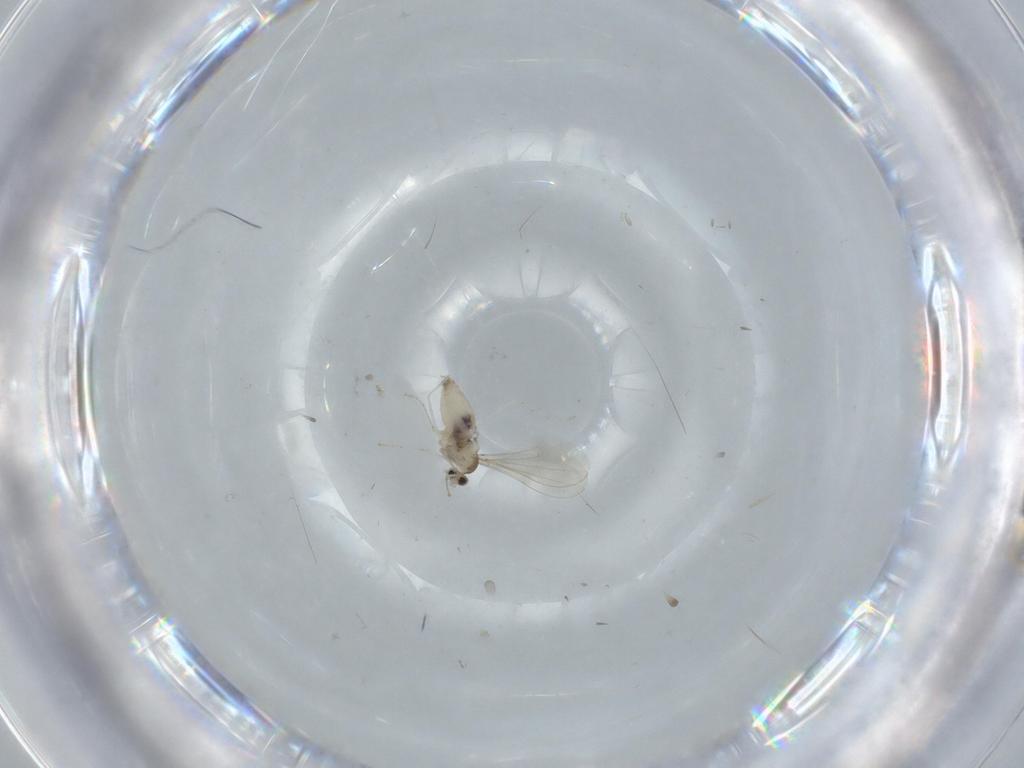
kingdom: Animalia
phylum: Arthropoda
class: Insecta
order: Diptera
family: Cecidomyiidae
